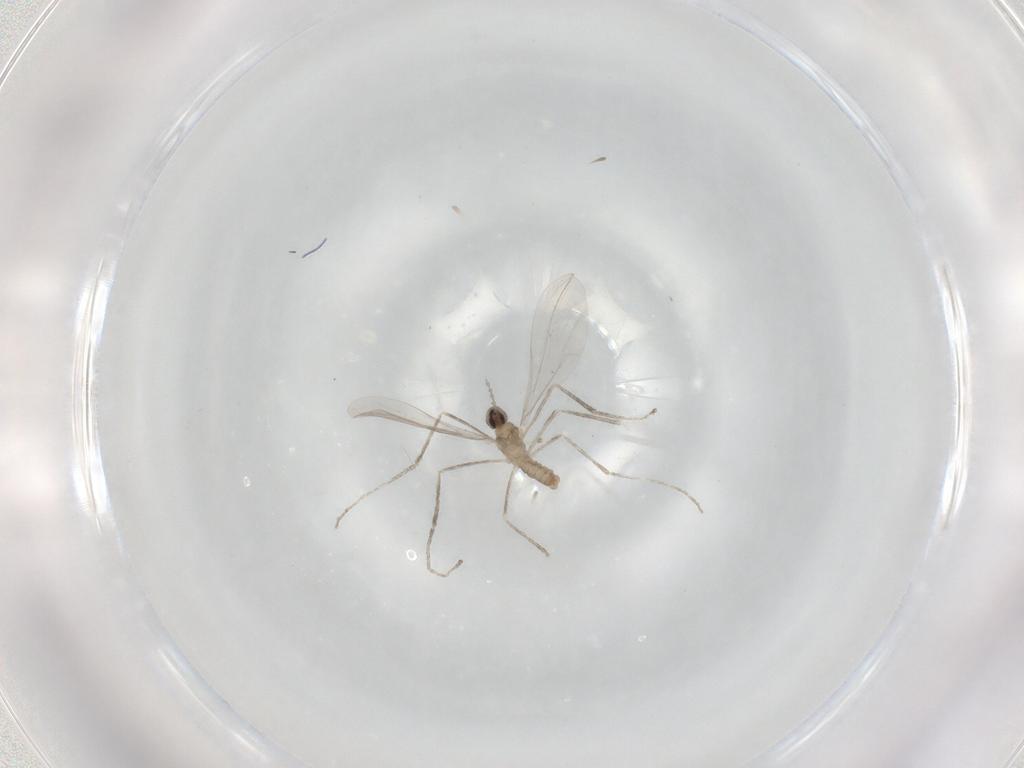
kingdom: Animalia
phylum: Arthropoda
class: Insecta
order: Diptera
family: Cecidomyiidae
